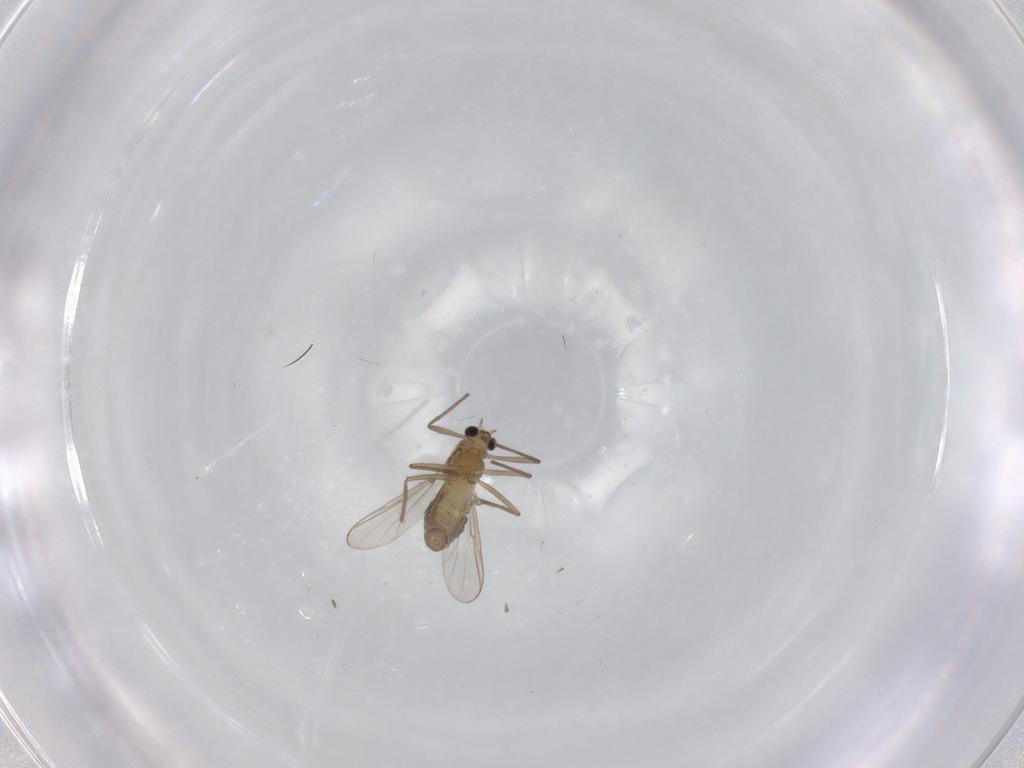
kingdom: Animalia
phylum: Arthropoda
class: Insecta
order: Diptera
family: Chironomidae
